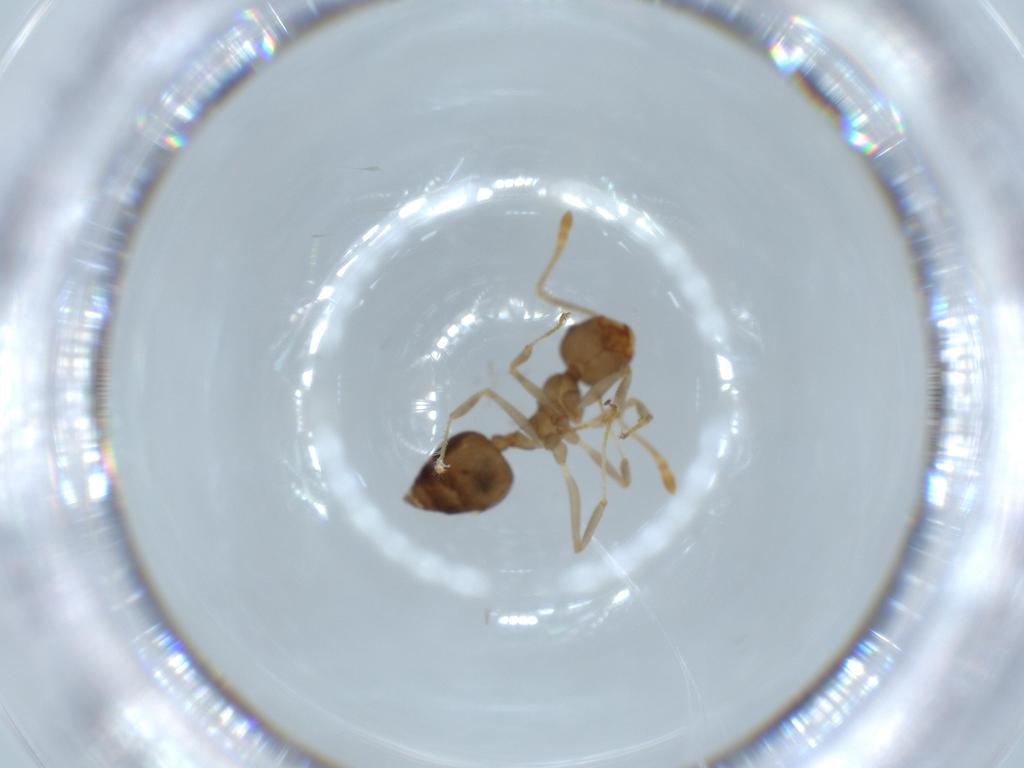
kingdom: Animalia
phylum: Arthropoda
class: Insecta
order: Hymenoptera
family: Formicidae
